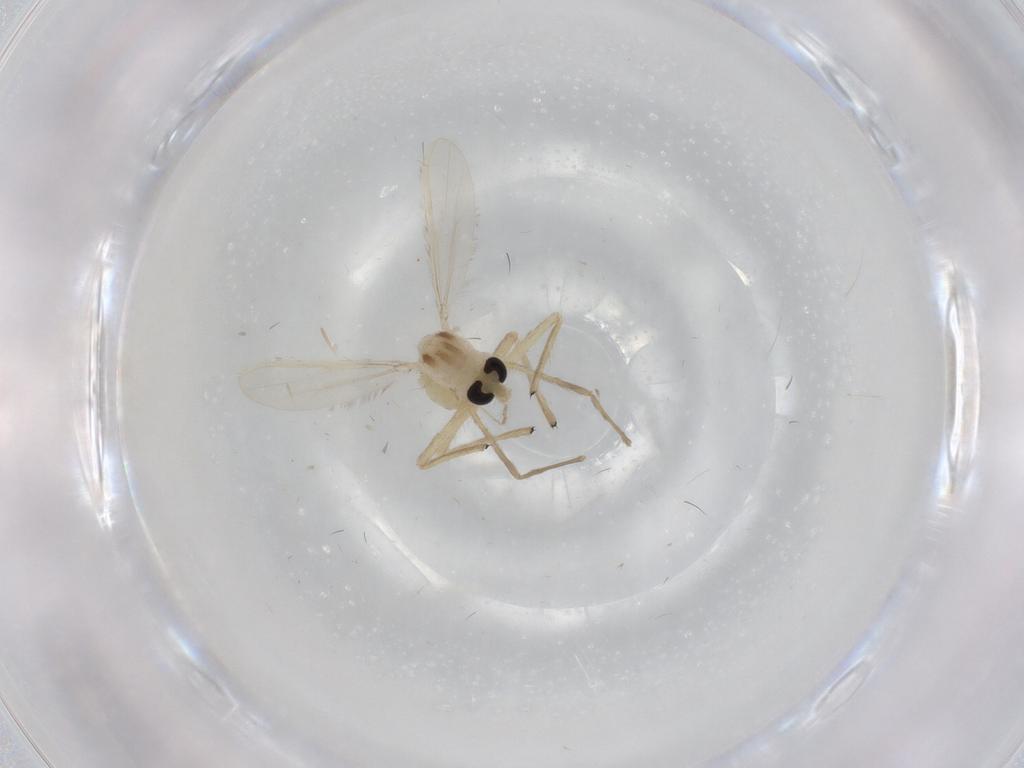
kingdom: Animalia
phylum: Arthropoda
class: Insecta
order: Diptera
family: Chironomidae
